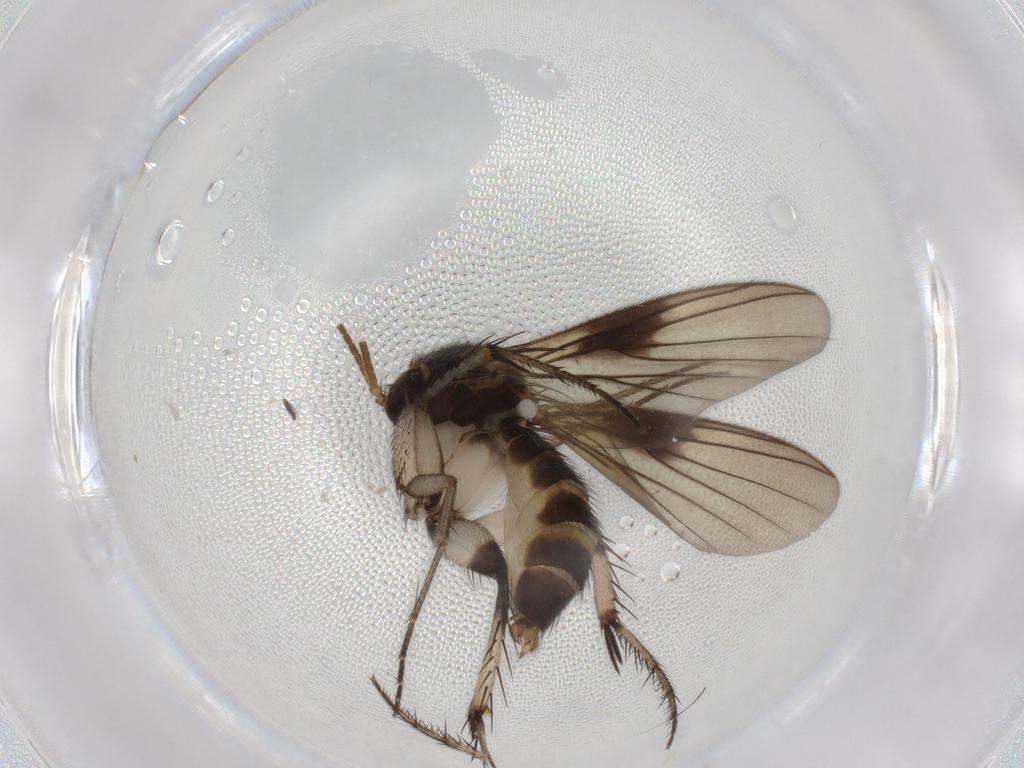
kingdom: Animalia
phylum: Arthropoda
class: Insecta
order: Diptera
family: Mycetophilidae
